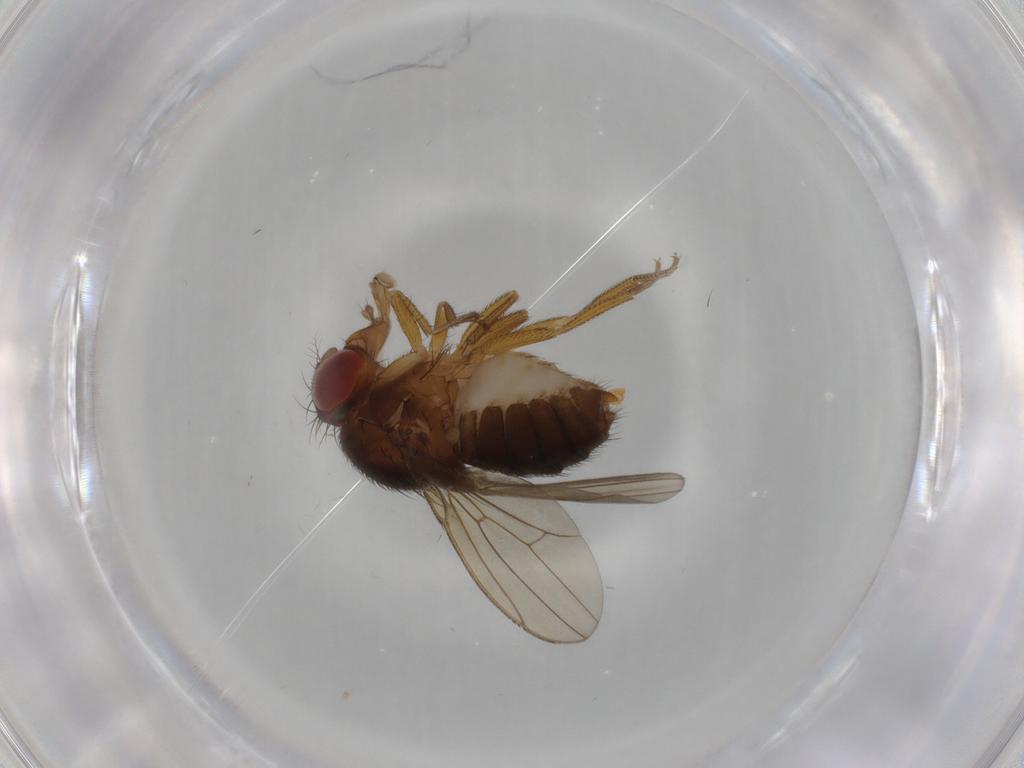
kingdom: Animalia
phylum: Arthropoda
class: Insecta
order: Diptera
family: Drosophilidae
